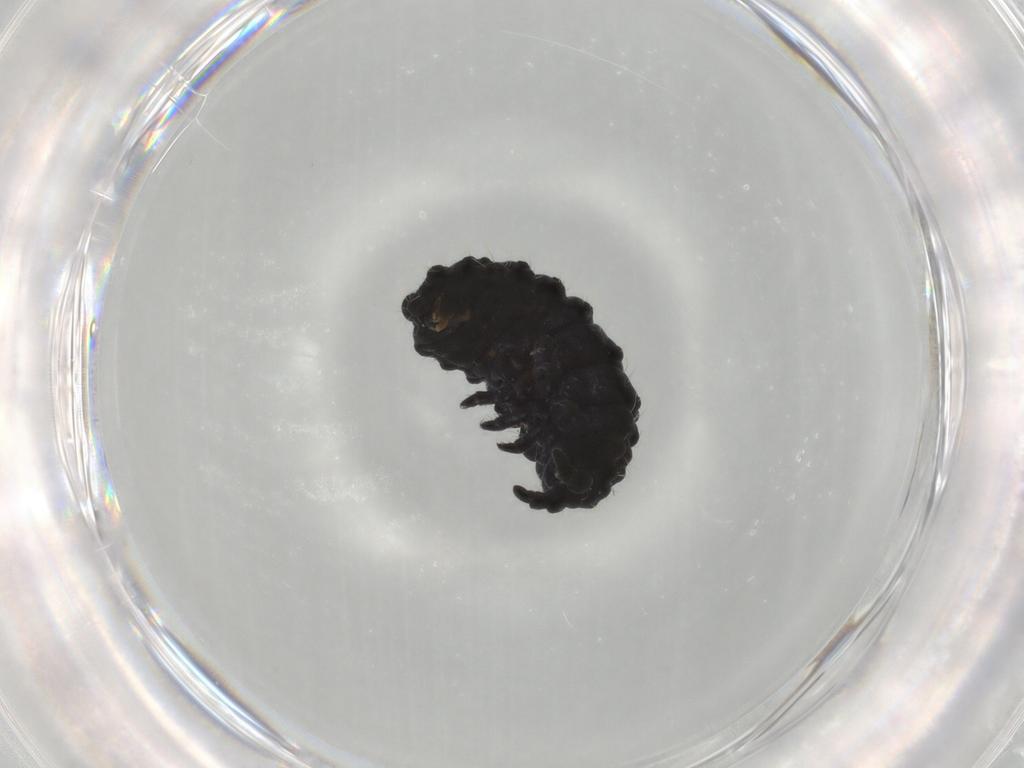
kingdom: Animalia
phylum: Arthropoda
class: Collembola
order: Poduromorpha
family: Neanuridae
